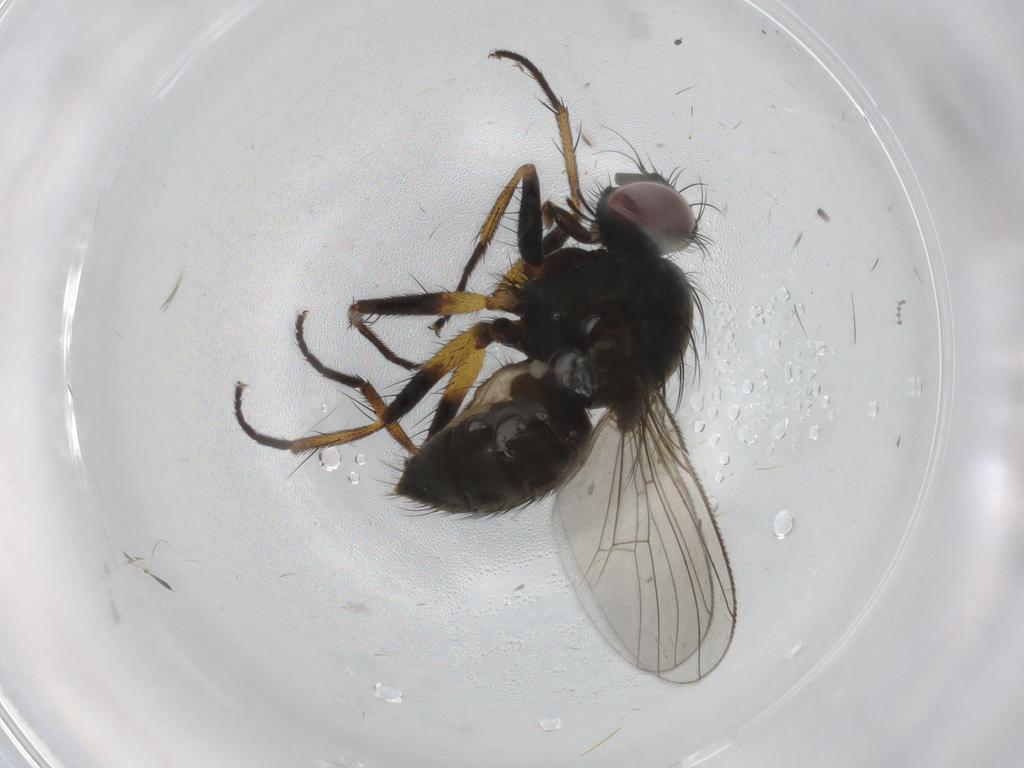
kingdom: Animalia
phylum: Arthropoda
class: Insecta
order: Diptera
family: Muscidae
